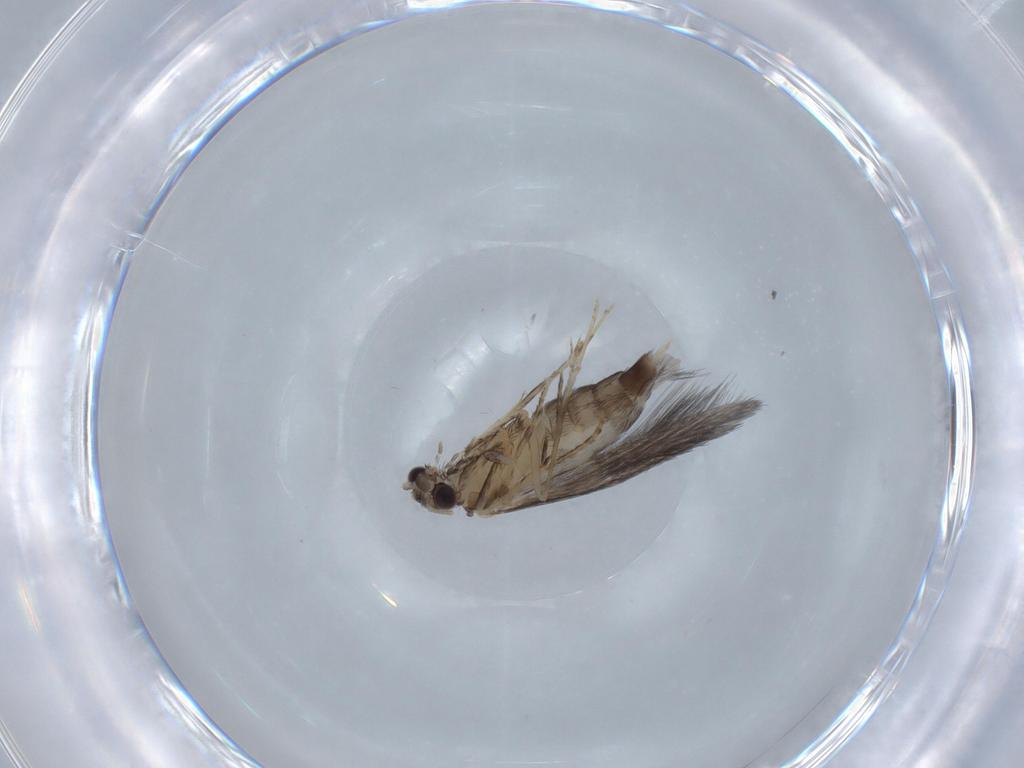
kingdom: Animalia
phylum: Arthropoda
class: Insecta
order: Trichoptera
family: Hydroptilidae
